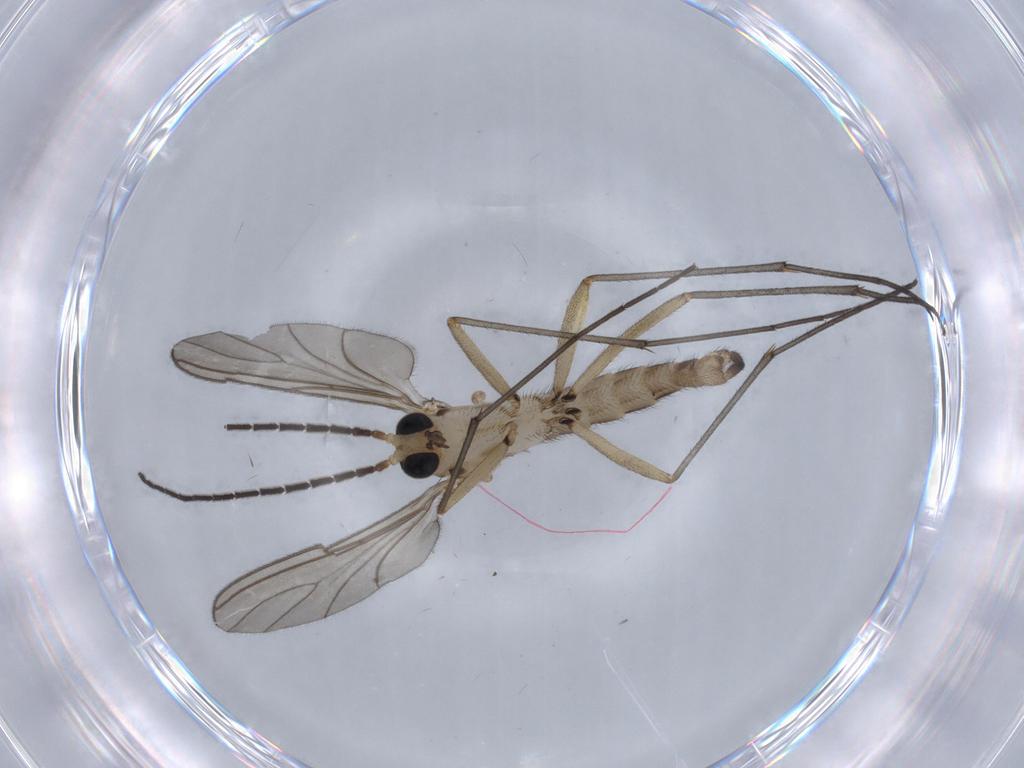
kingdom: Animalia
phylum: Arthropoda
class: Insecta
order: Diptera
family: Sciaridae
